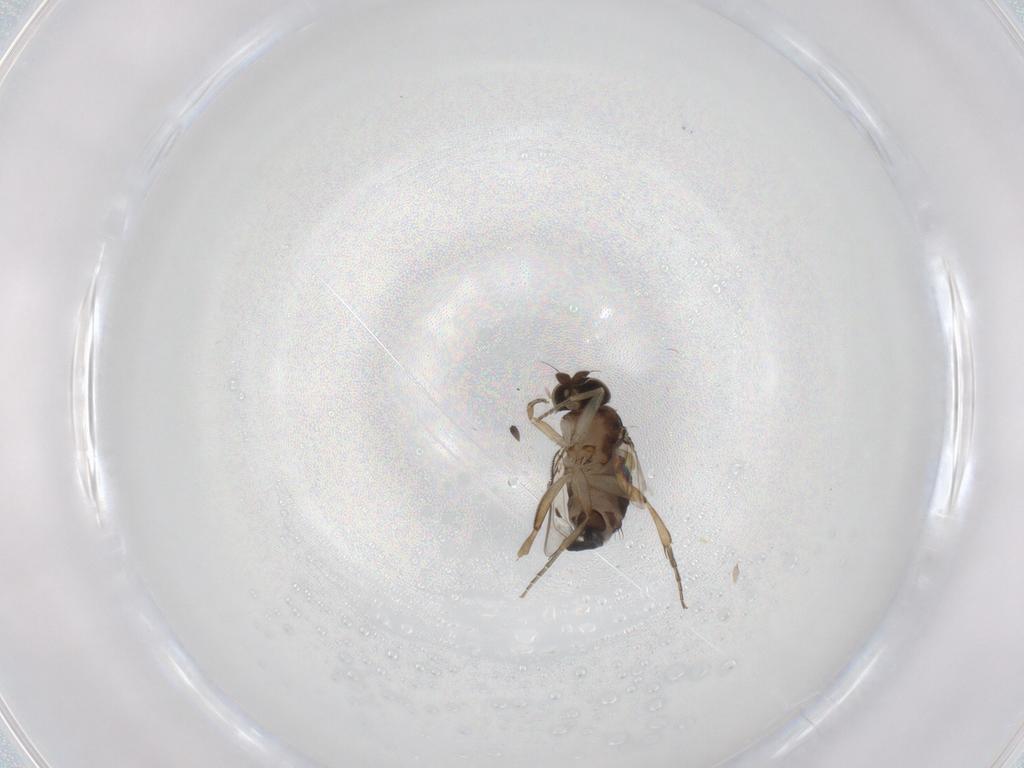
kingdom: Animalia
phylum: Arthropoda
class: Insecta
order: Diptera
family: Phoridae
